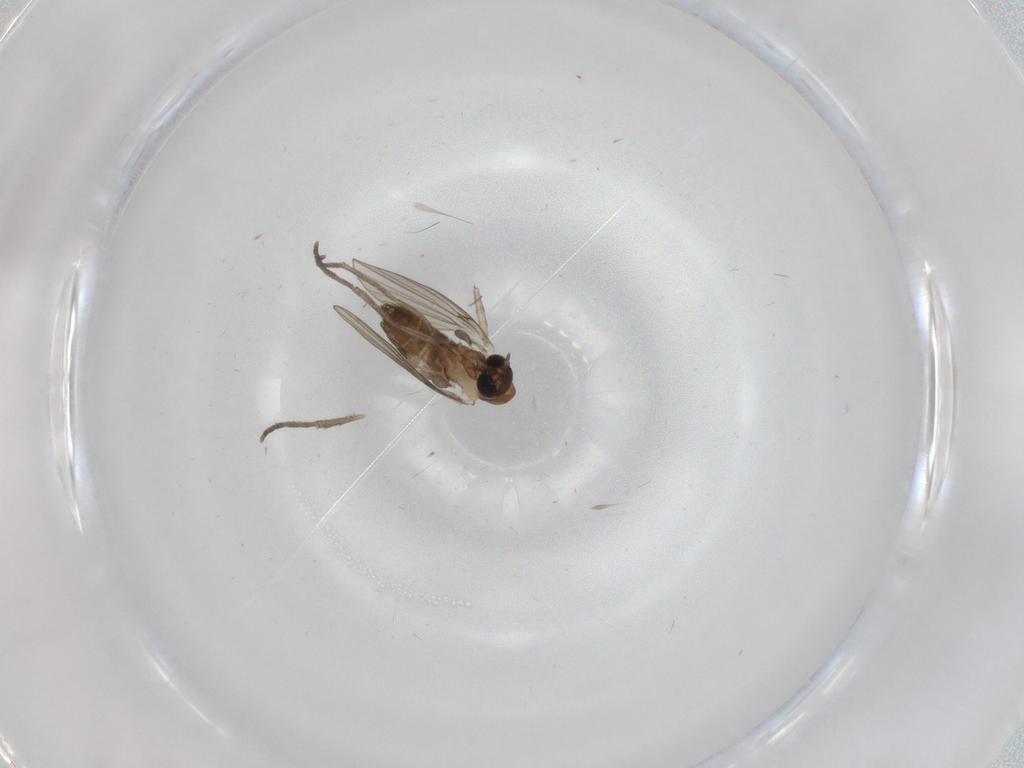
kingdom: Animalia
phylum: Arthropoda
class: Insecta
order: Diptera
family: Psychodidae
